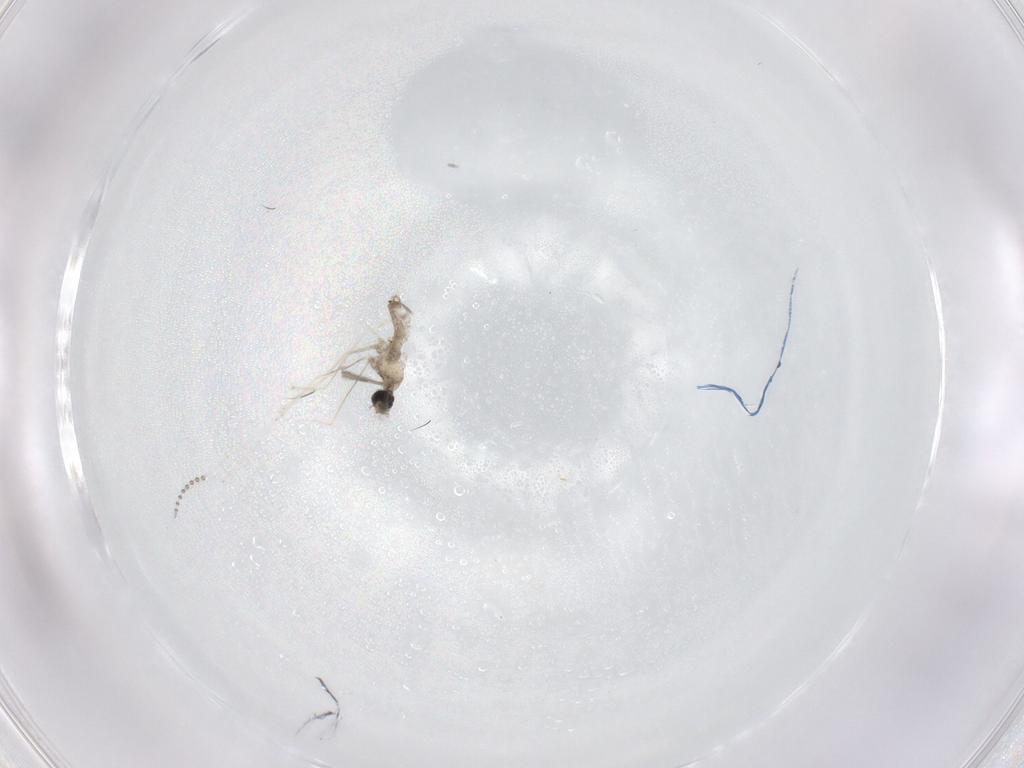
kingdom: Animalia
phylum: Arthropoda
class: Insecta
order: Diptera
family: Psychodidae
